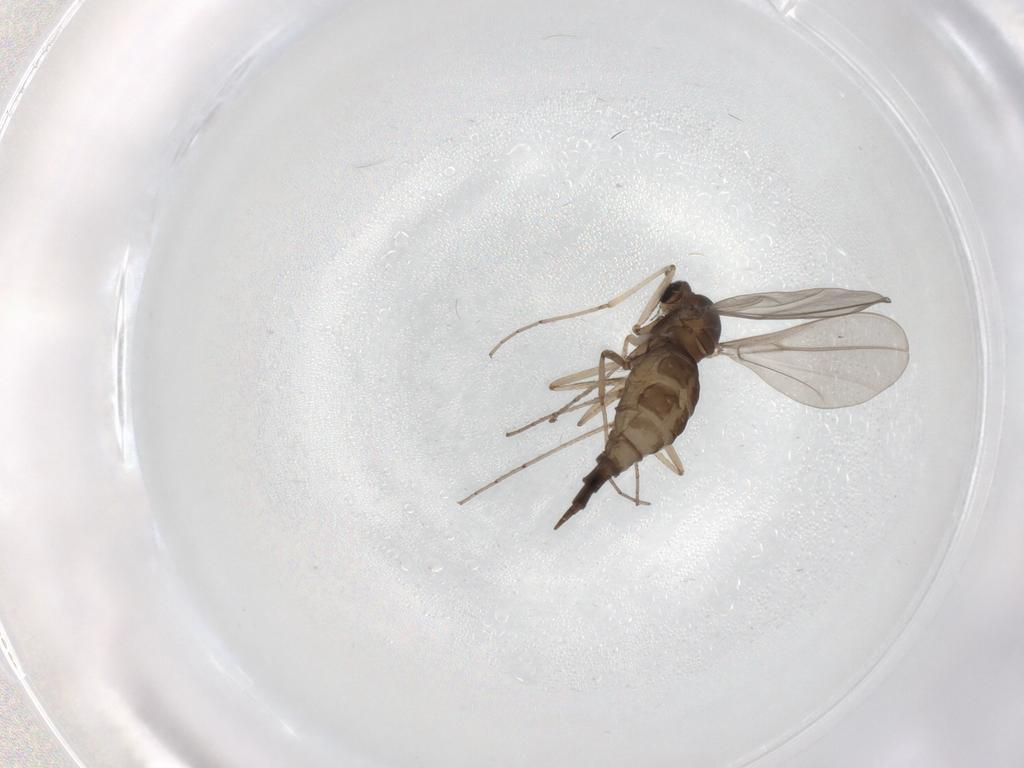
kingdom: Animalia
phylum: Arthropoda
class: Insecta
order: Diptera
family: Cecidomyiidae
